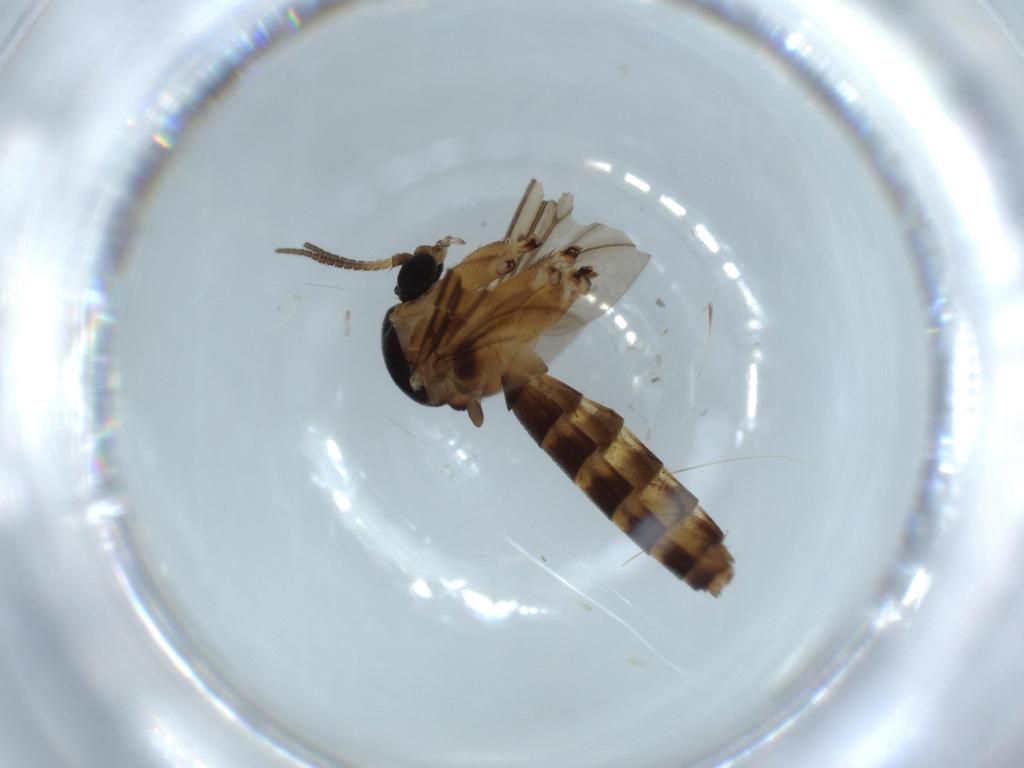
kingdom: Animalia
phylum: Arthropoda
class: Insecta
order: Diptera
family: Mycetophilidae
